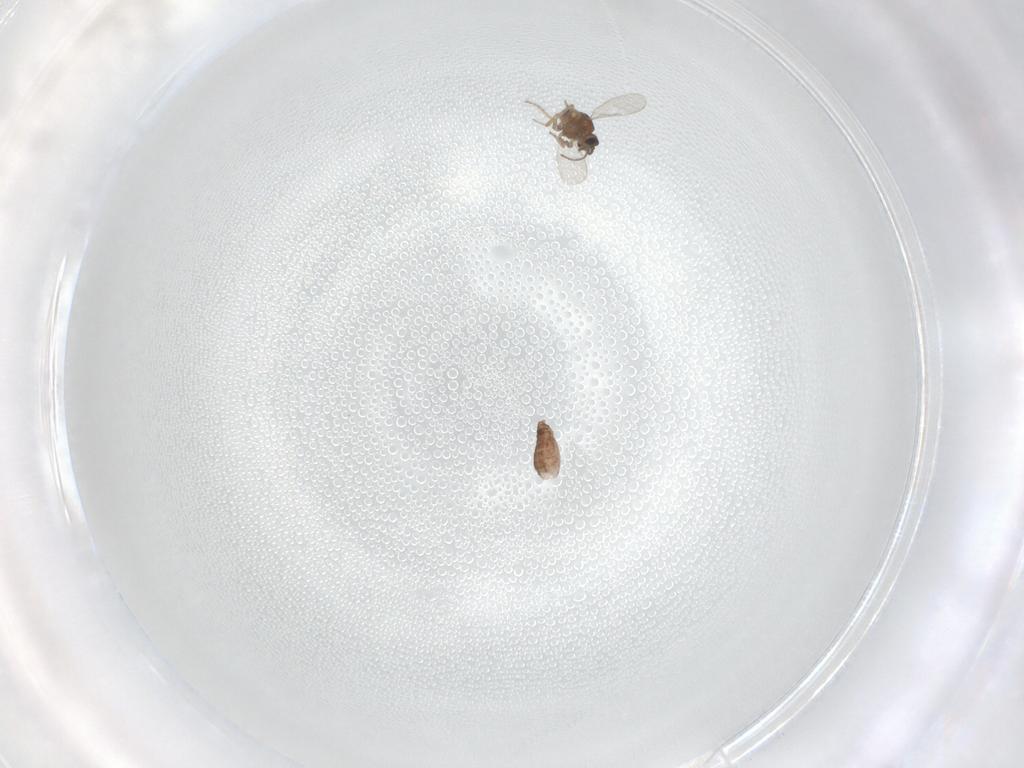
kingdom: Animalia
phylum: Arthropoda
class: Insecta
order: Diptera
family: Ceratopogonidae
